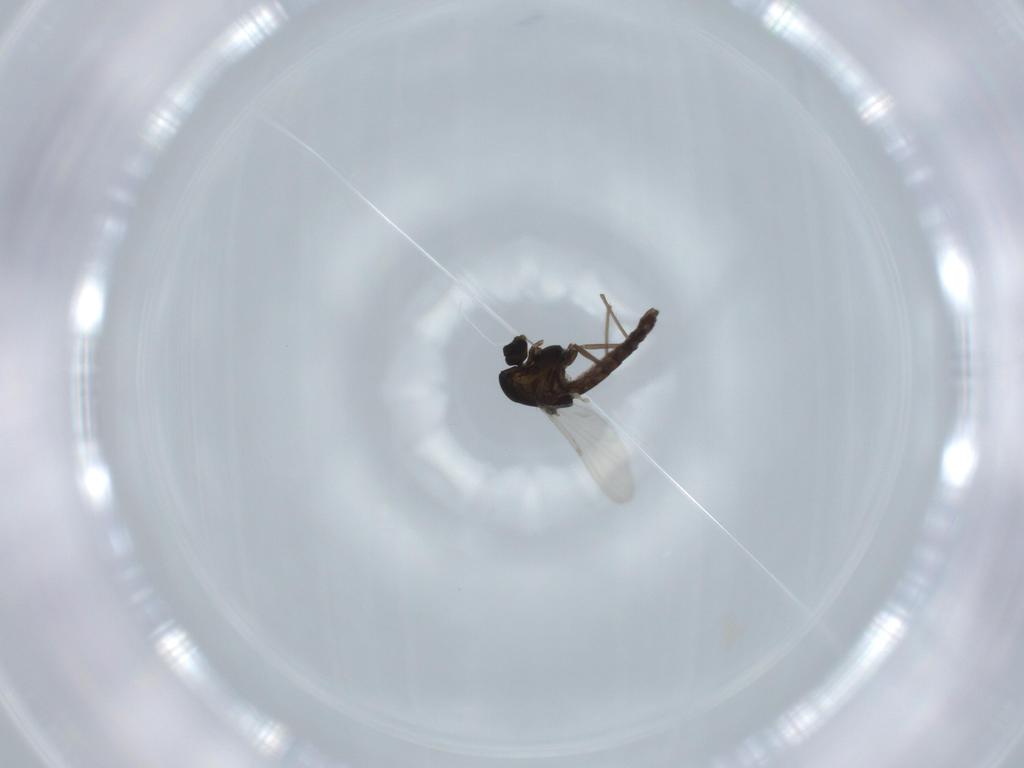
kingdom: Animalia
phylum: Arthropoda
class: Insecta
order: Diptera
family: Chironomidae
